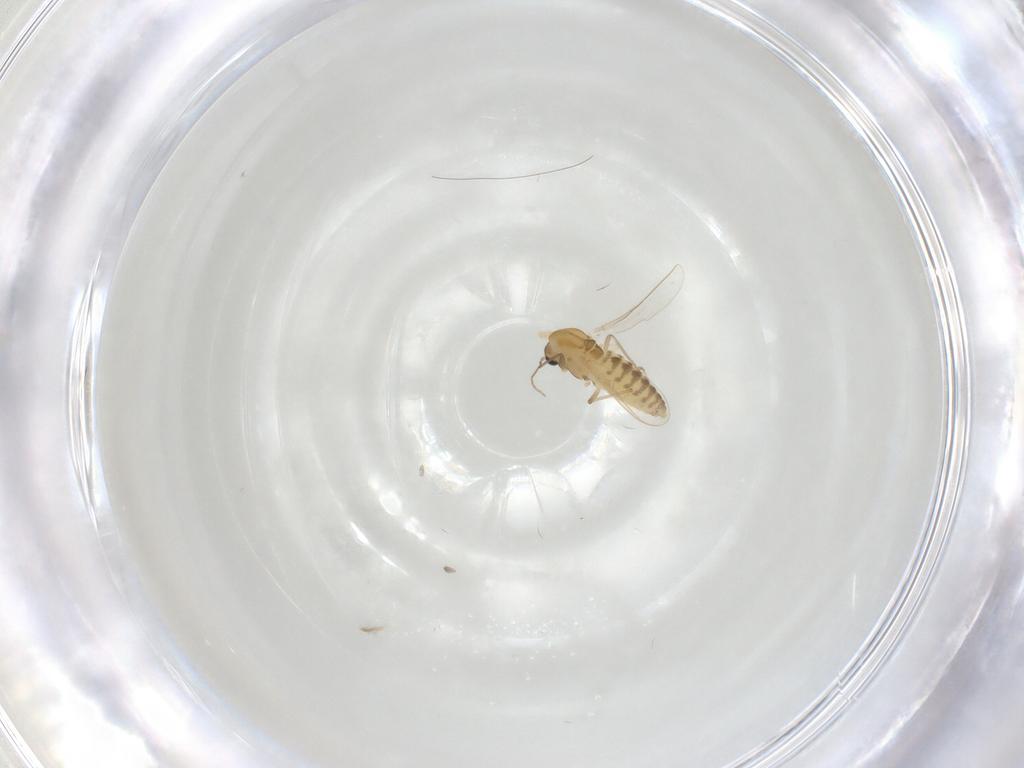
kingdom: Animalia
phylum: Arthropoda
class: Insecta
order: Diptera
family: Chironomidae
